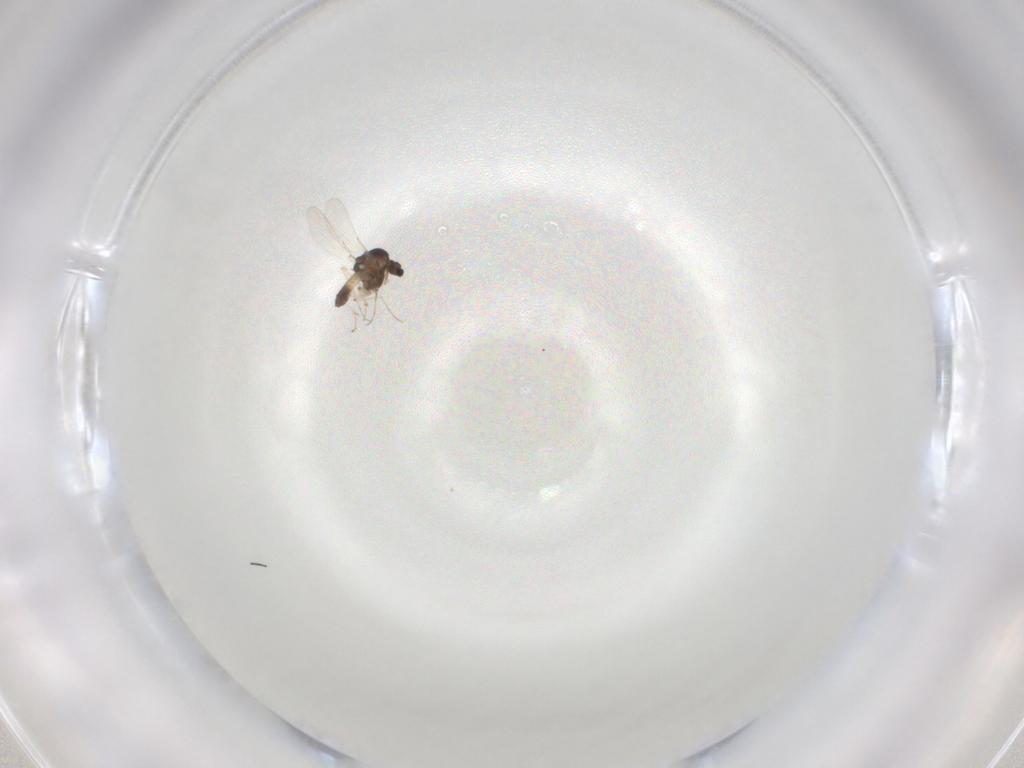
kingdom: Animalia
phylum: Arthropoda
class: Insecta
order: Diptera
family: Chironomidae
